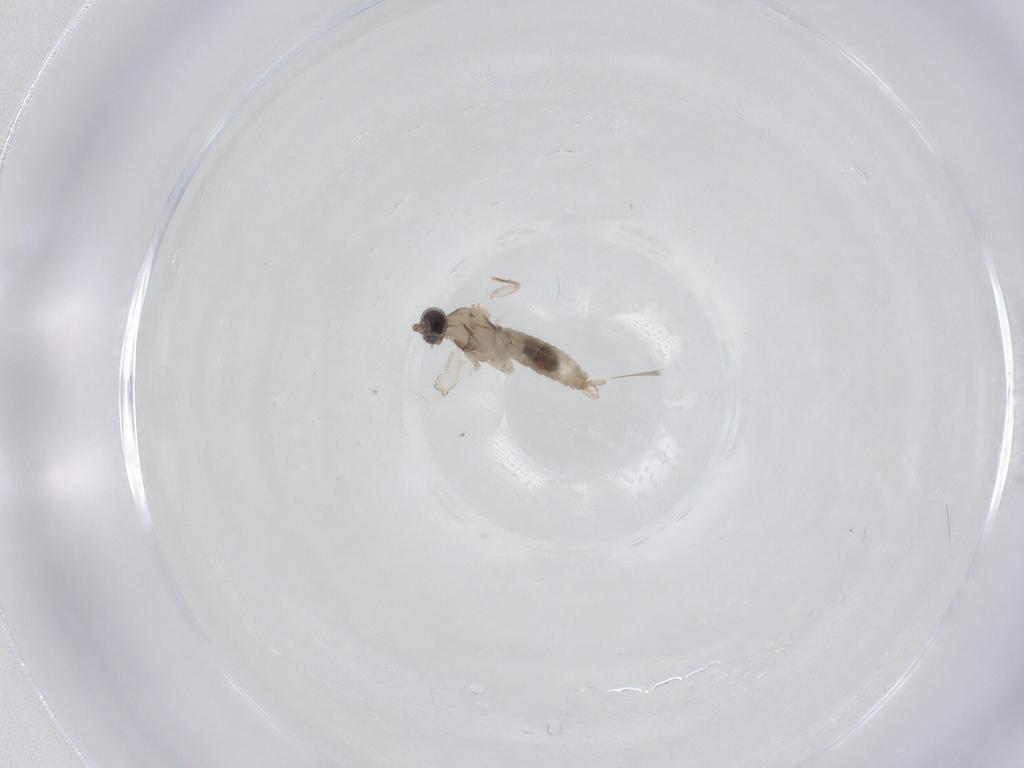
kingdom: Animalia
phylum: Arthropoda
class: Insecta
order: Diptera
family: Cecidomyiidae
